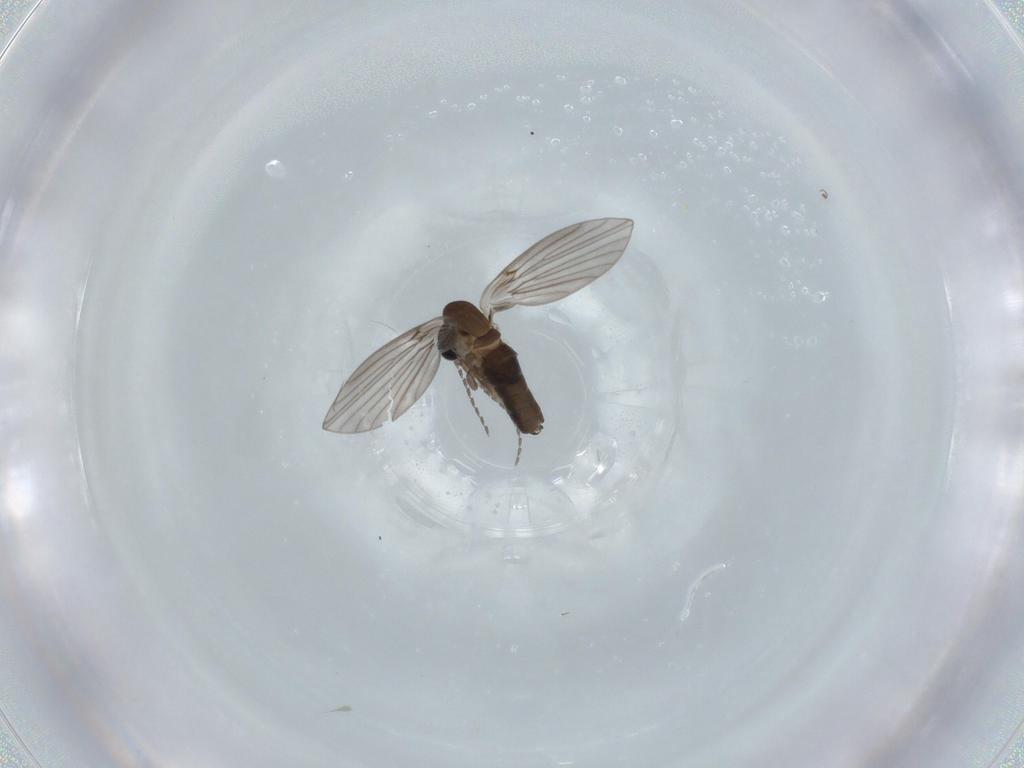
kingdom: Animalia
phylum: Arthropoda
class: Insecta
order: Diptera
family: Psychodidae
